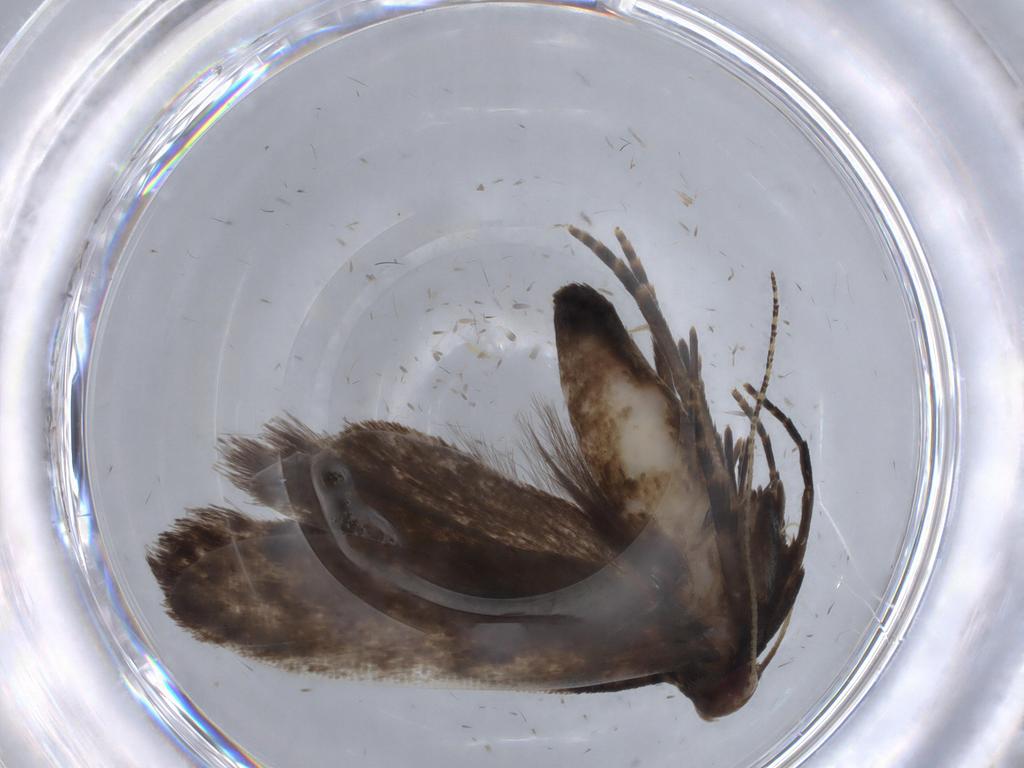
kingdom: Animalia
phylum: Arthropoda
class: Insecta
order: Lepidoptera
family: Gelechiidae
